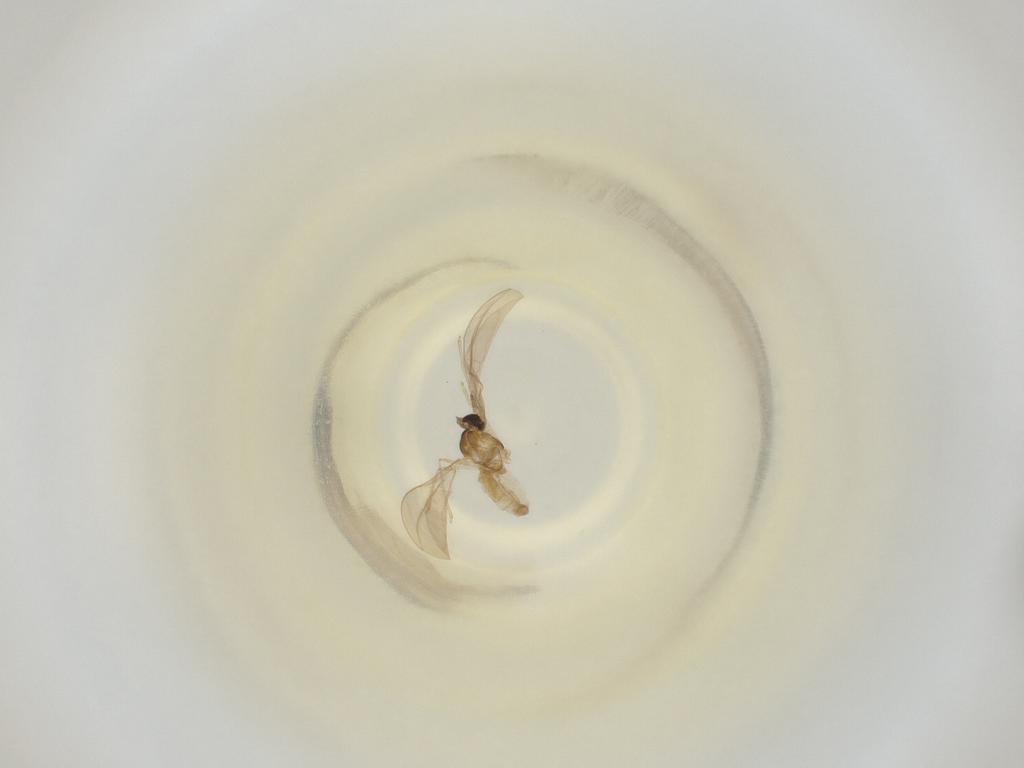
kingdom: Animalia
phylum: Arthropoda
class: Insecta
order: Diptera
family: Cecidomyiidae
